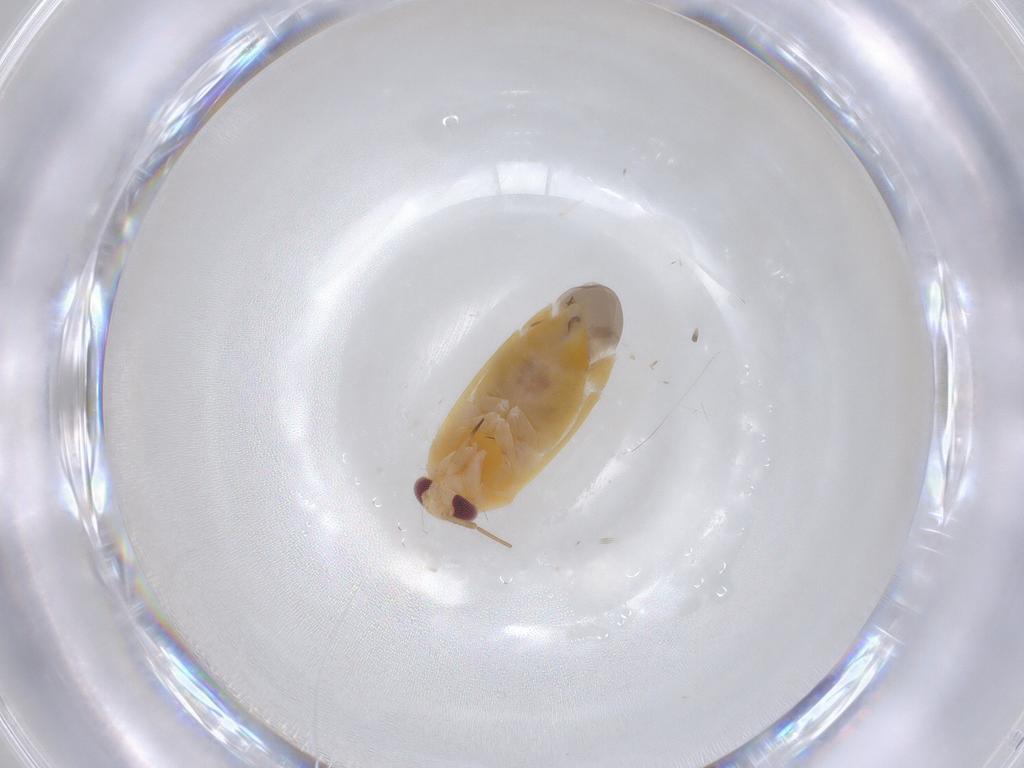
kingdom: Animalia
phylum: Arthropoda
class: Insecta
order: Hemiptera
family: Miridae
